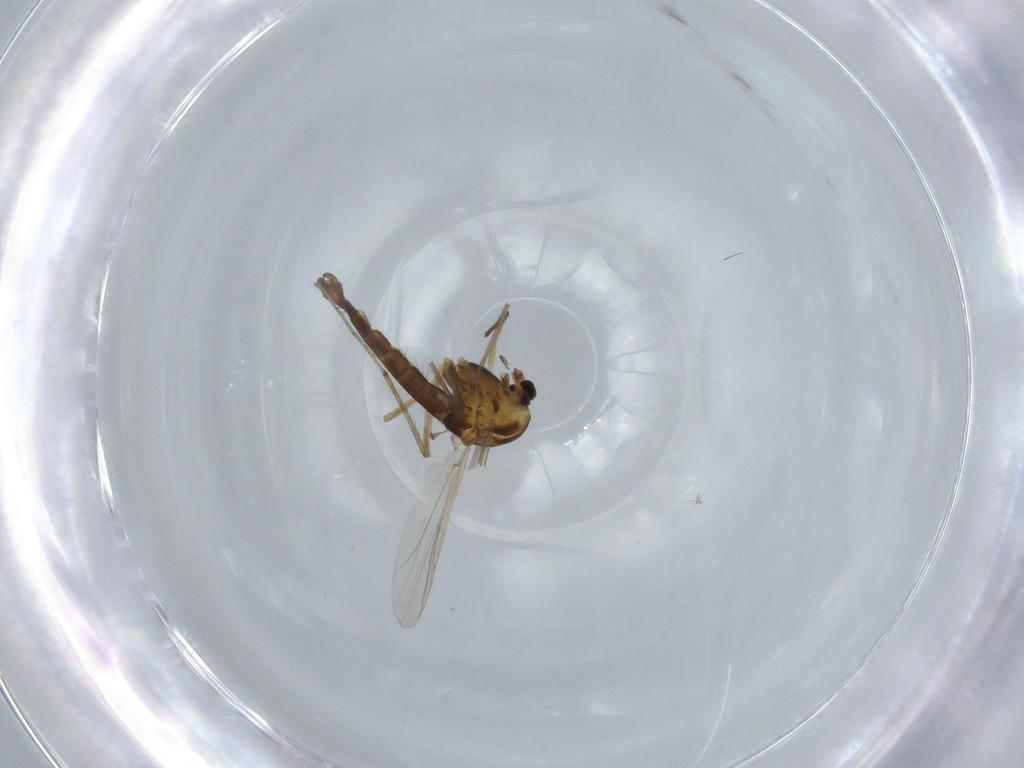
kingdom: Animalia
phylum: Arthropoda
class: Insecta
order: Diptera
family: Chironomidae
